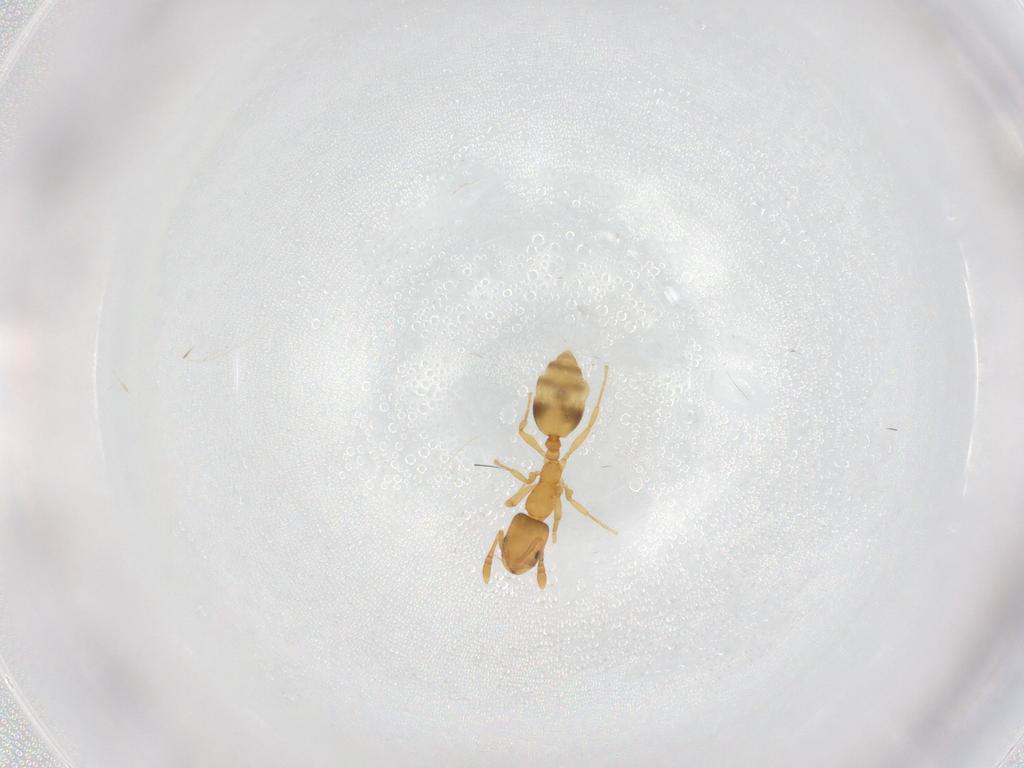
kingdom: Animalia
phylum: Arthropoda
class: Insecta
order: Hymenoptera
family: Formicidae
